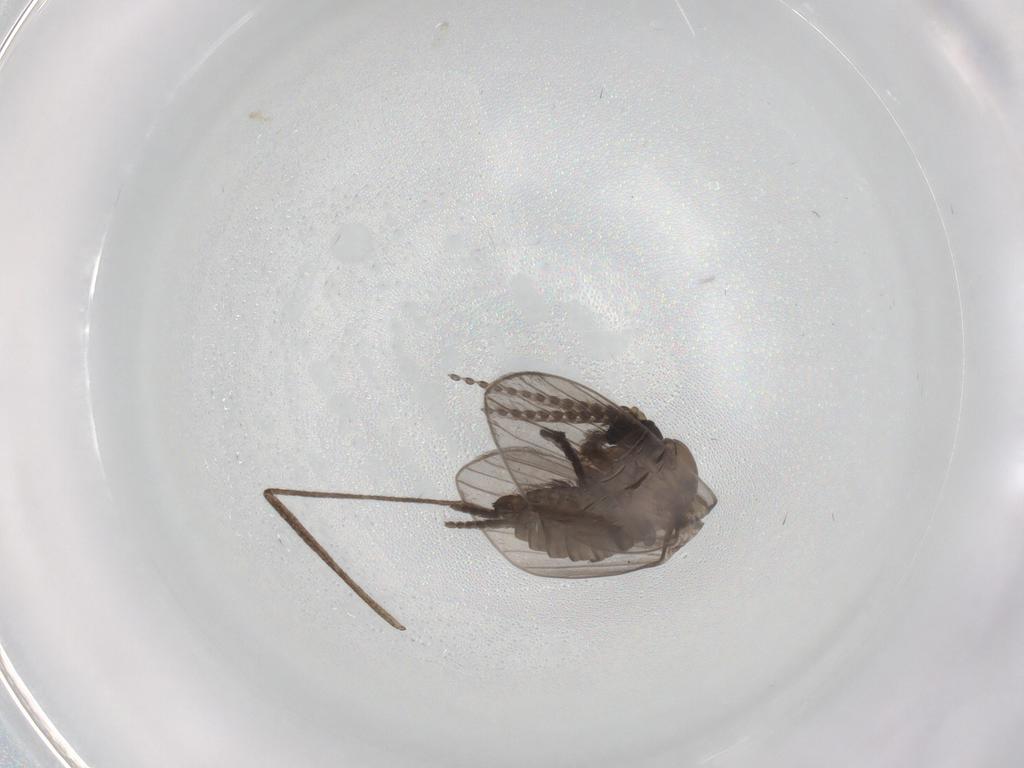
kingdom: Animalia
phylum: Arthropoda
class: Insecta
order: Diptera
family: Psychodidae
